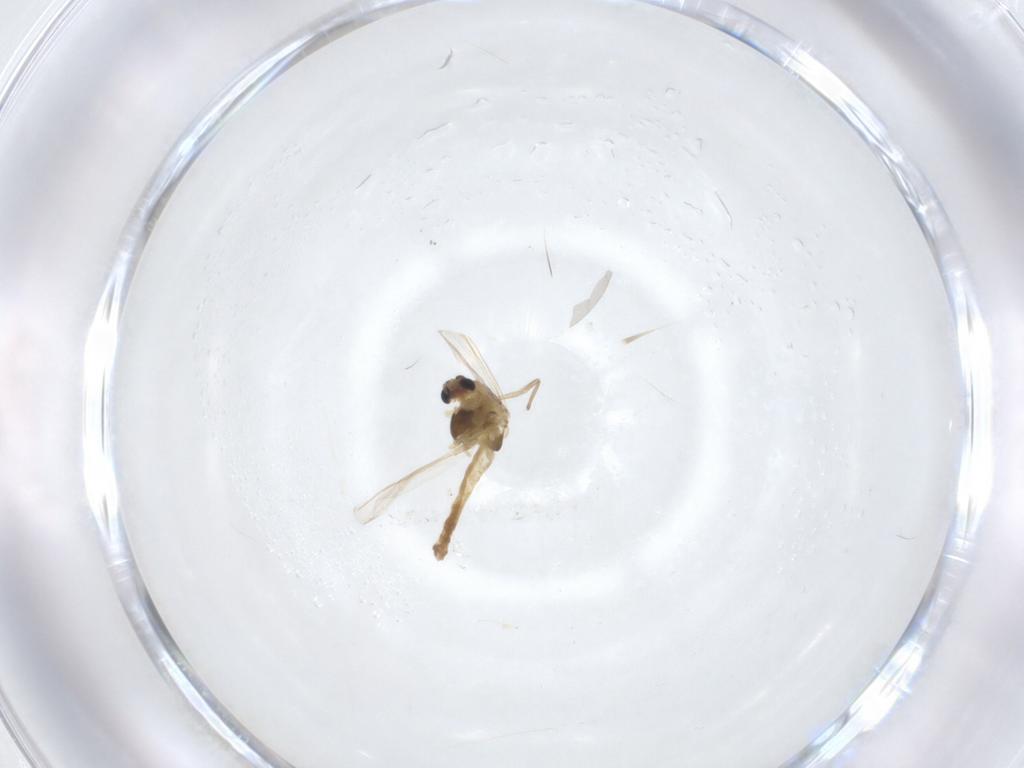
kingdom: Animalia
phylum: Arthropoda
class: Insecta
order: Diptera
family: Chironomidae
